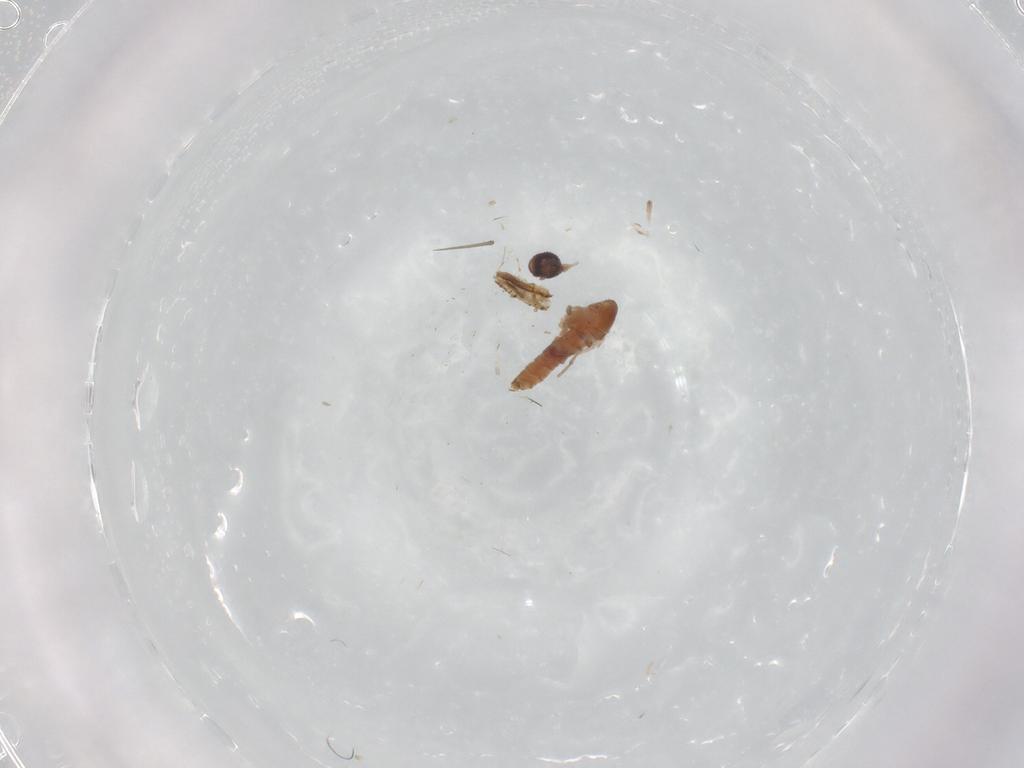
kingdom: Animalia
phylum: Arthropoda
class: Insecta
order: Diptera
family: Psychodidae
